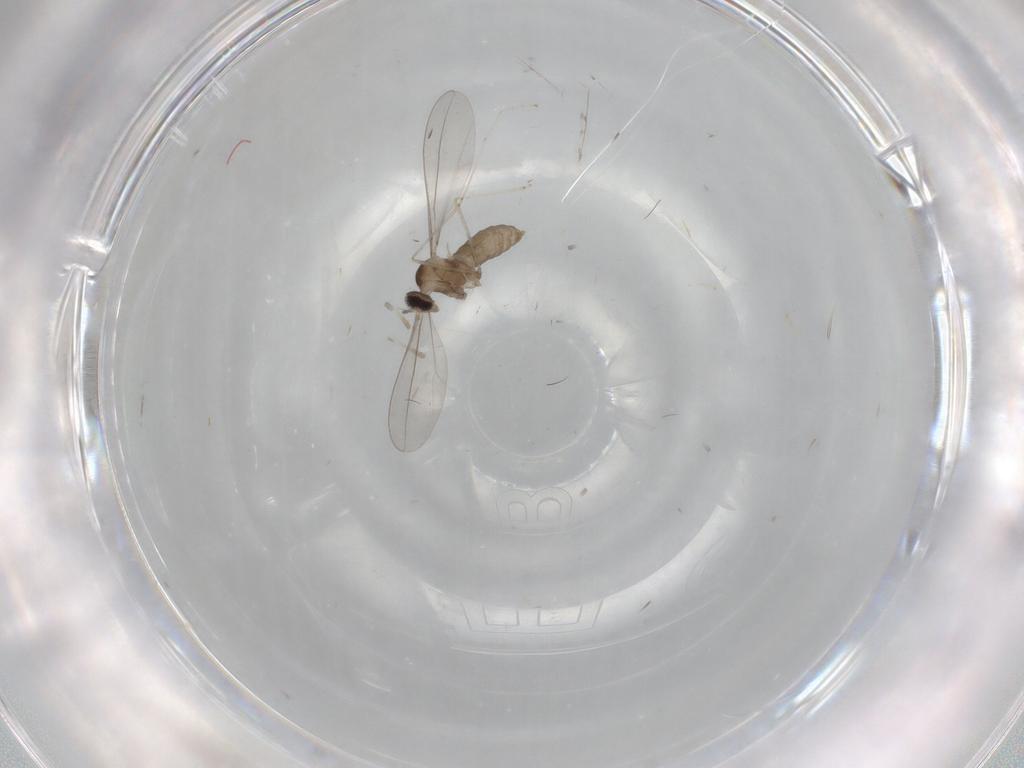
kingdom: Animalia
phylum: Arthropoda
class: Insecta
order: Diptera
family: Cecidomyiidae
